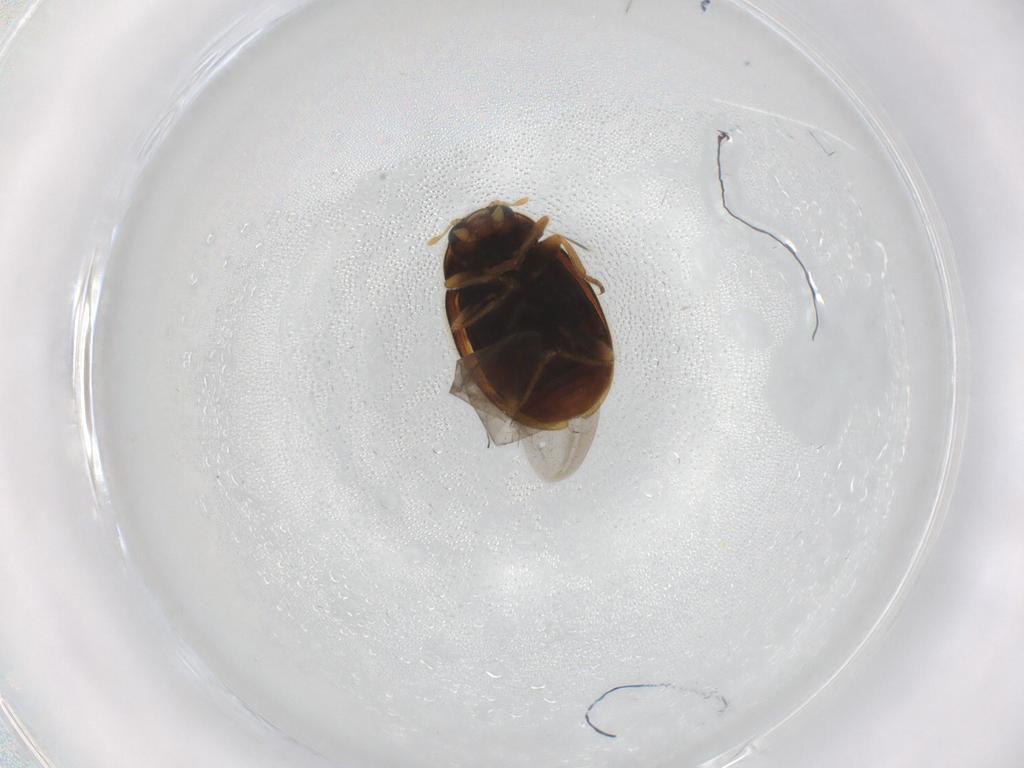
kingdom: Animalia
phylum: Arthropoda
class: Insecta
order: Coleoptera
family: Coccinellidae
